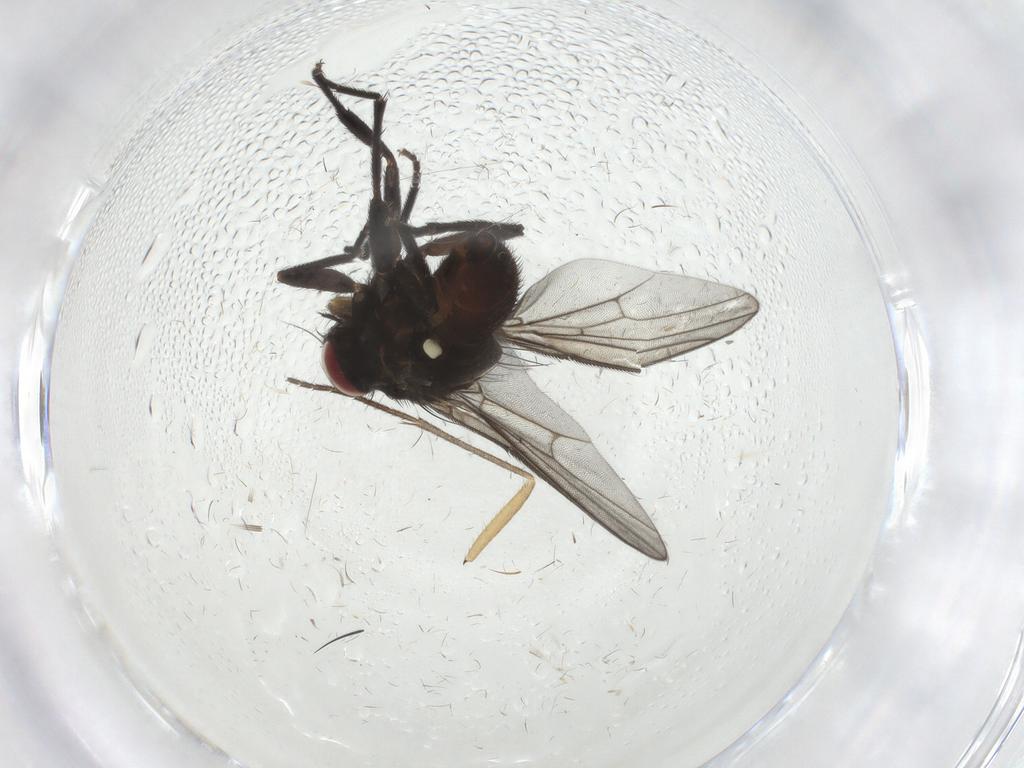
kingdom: Animalia
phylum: Arthropoda
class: Insecta
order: Diptera
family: Sciaridae
